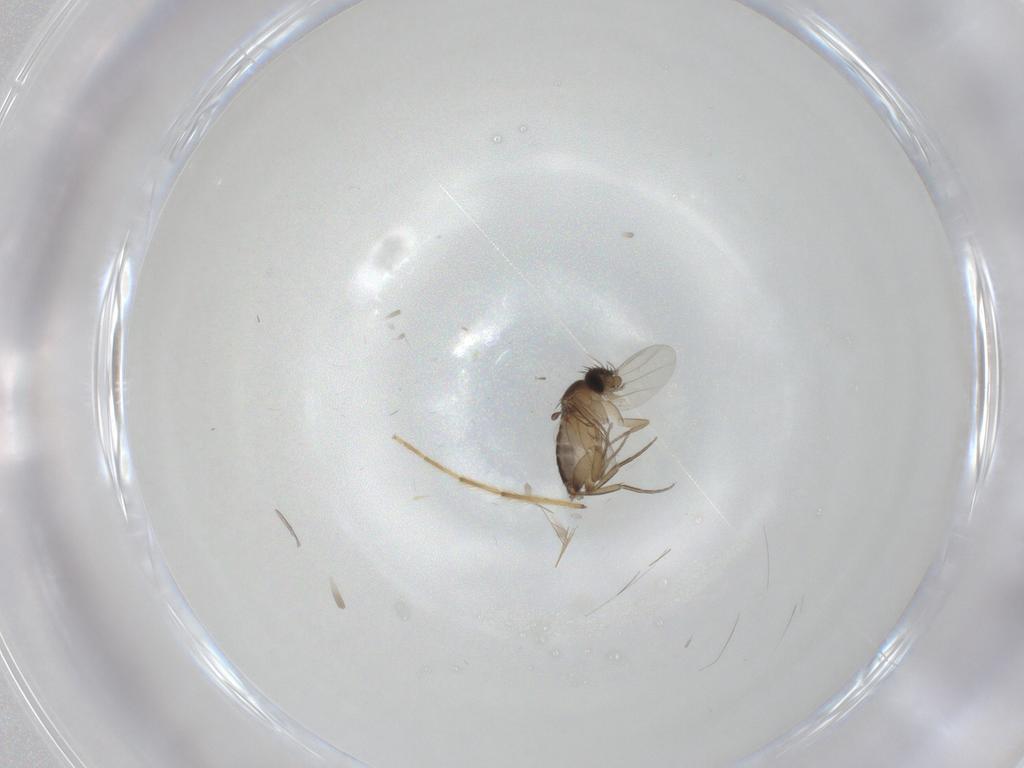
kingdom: Animalia
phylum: Arthropoda
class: Insecta
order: Diptera
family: Phoridae
